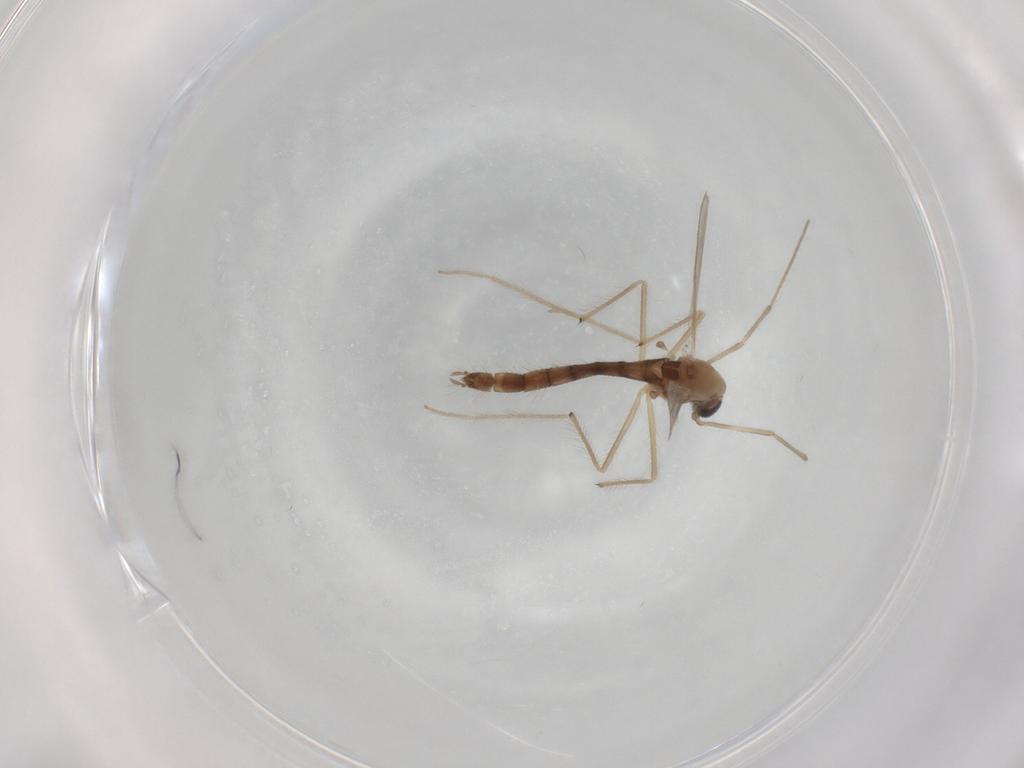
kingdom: Animalia
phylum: Arthropoda
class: Insecta
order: Diptera
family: Chironomidae
